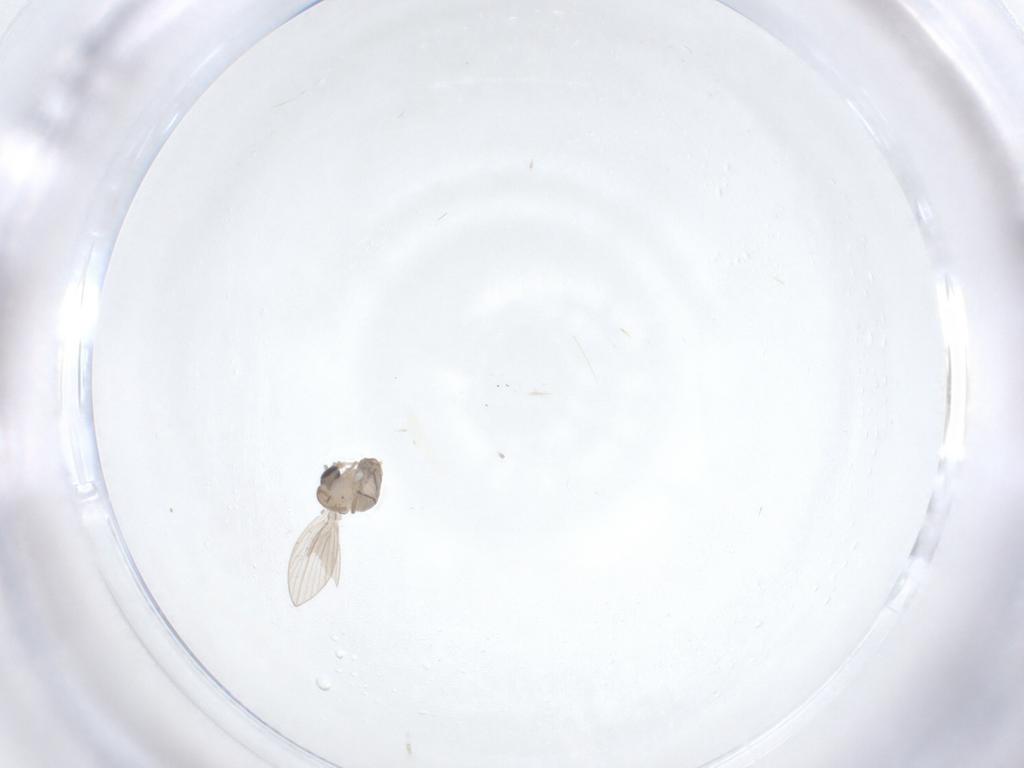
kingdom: Animalia
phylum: Arthropoda
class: Insecta
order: Diptera
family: Psychodidae
